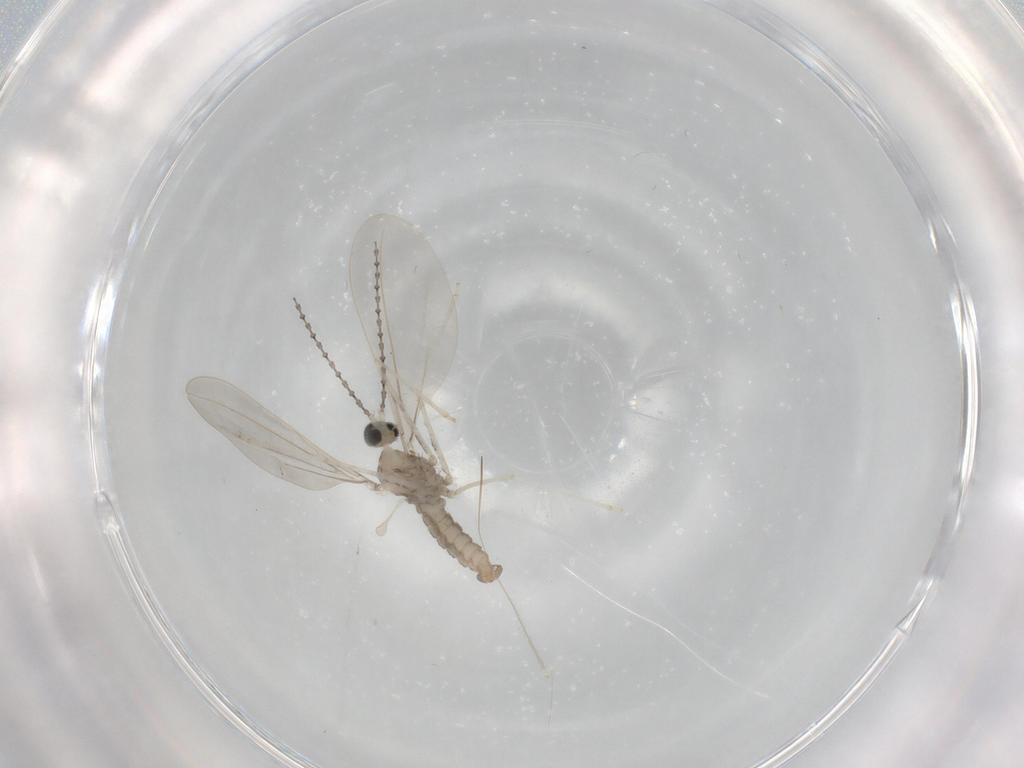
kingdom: Animalia
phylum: Arthropoda
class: Insecta
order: Diptera
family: Cecidomyiidae
